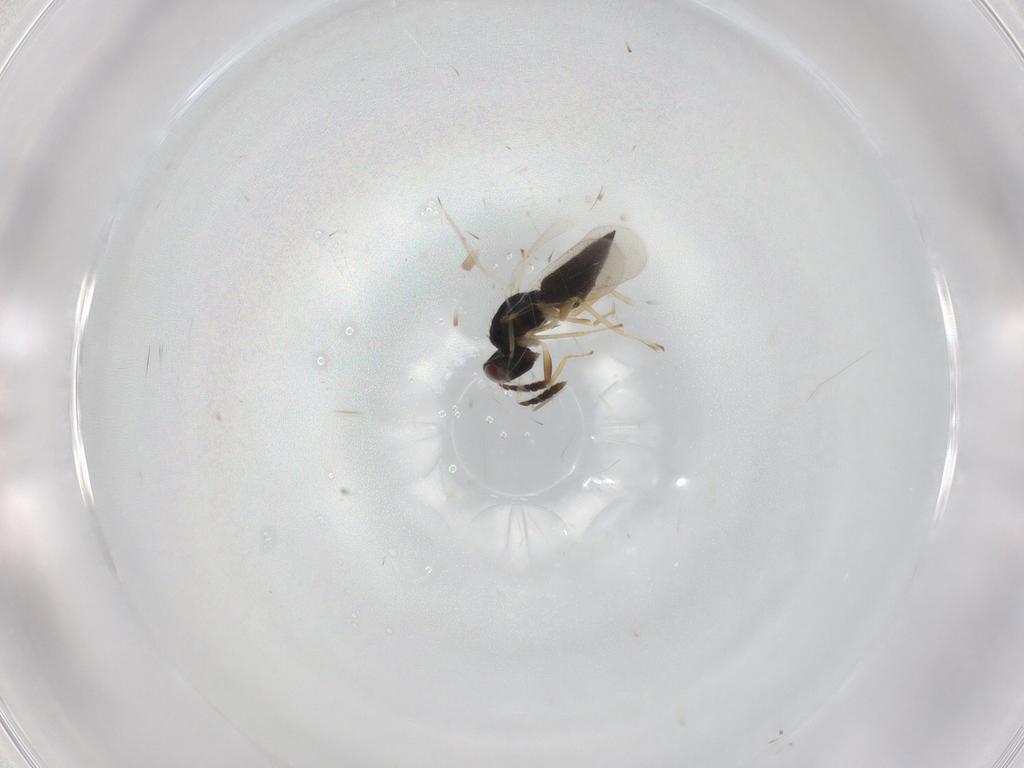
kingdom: Animalia
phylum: Arthropoda
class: Insecta
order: Hymenoptera
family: Eulophidae
